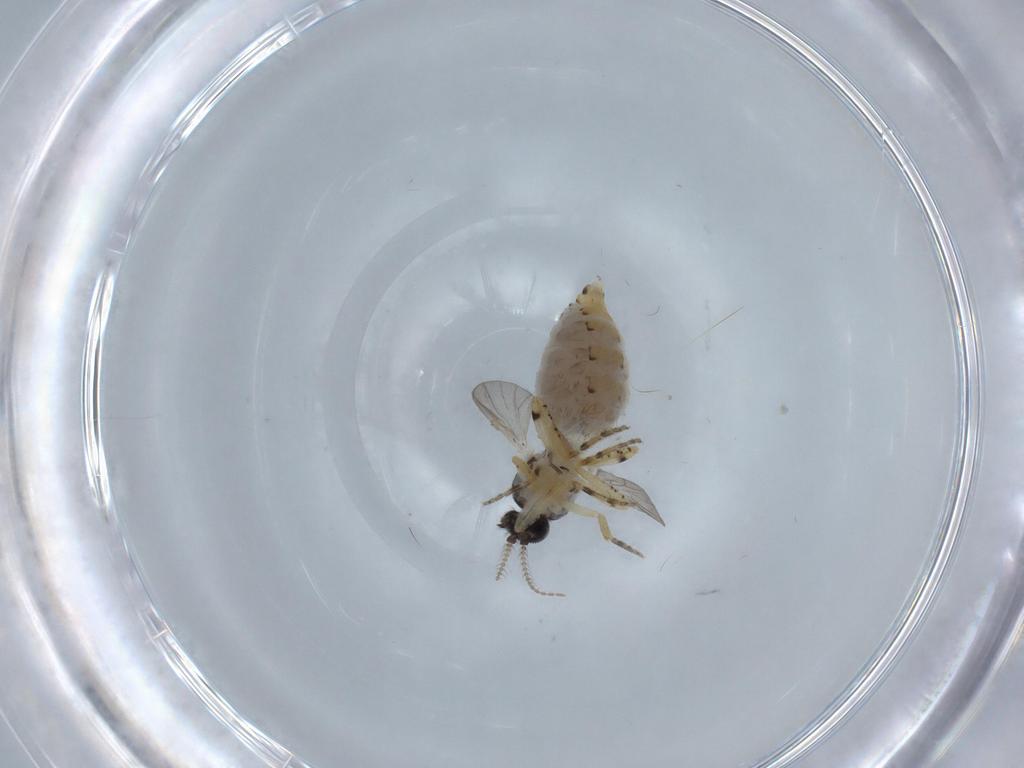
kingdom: Animalia
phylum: Arthropoda
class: Insecta
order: Diptera
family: Ceratopogonidae
